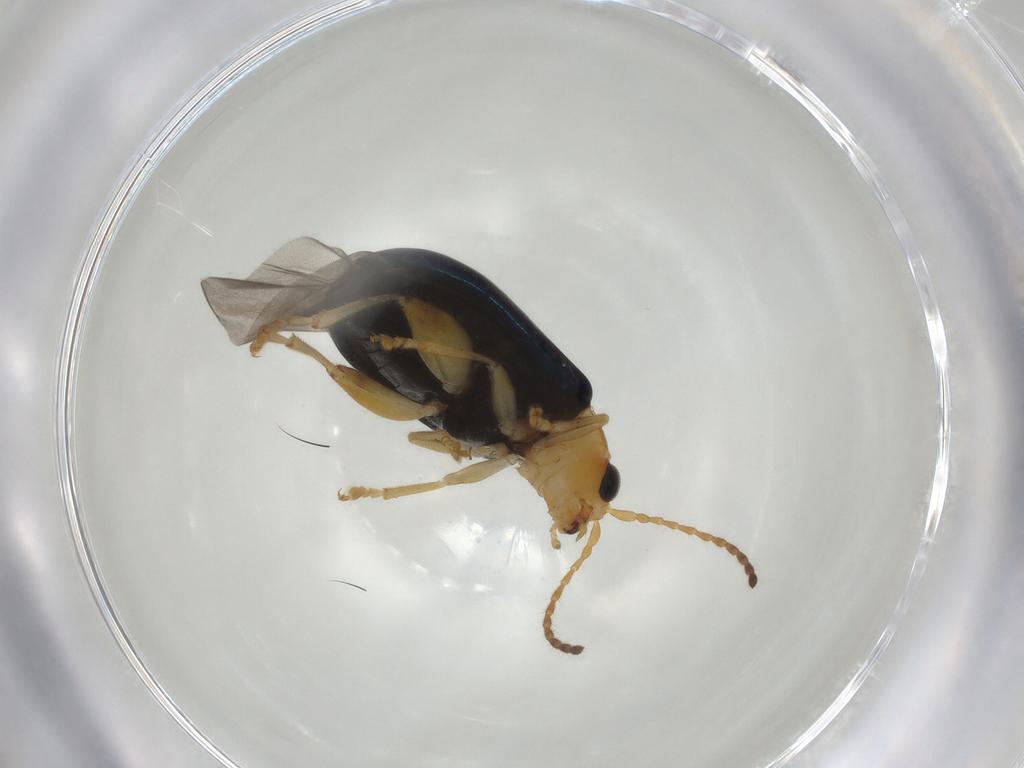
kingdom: Animalia
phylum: Arthropoda
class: Insecta
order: Coleoptera
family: Chrysomelidae
